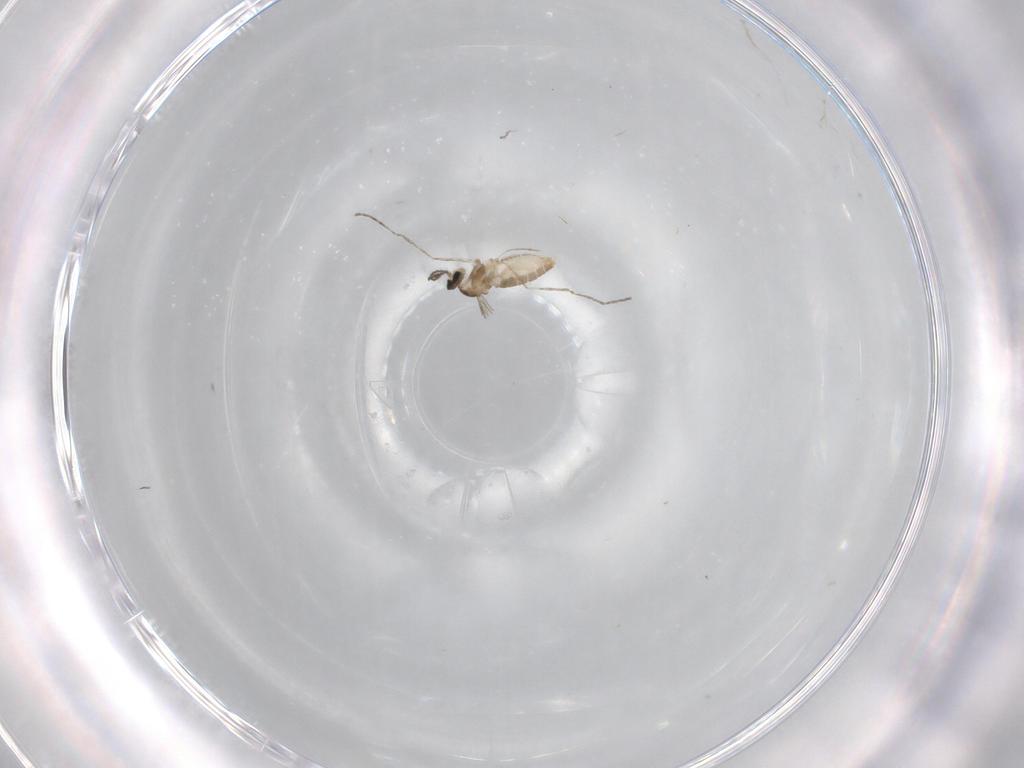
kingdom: Animalia
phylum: Arthropoda
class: Insecta
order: Diptera
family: Cecidomyiidae
